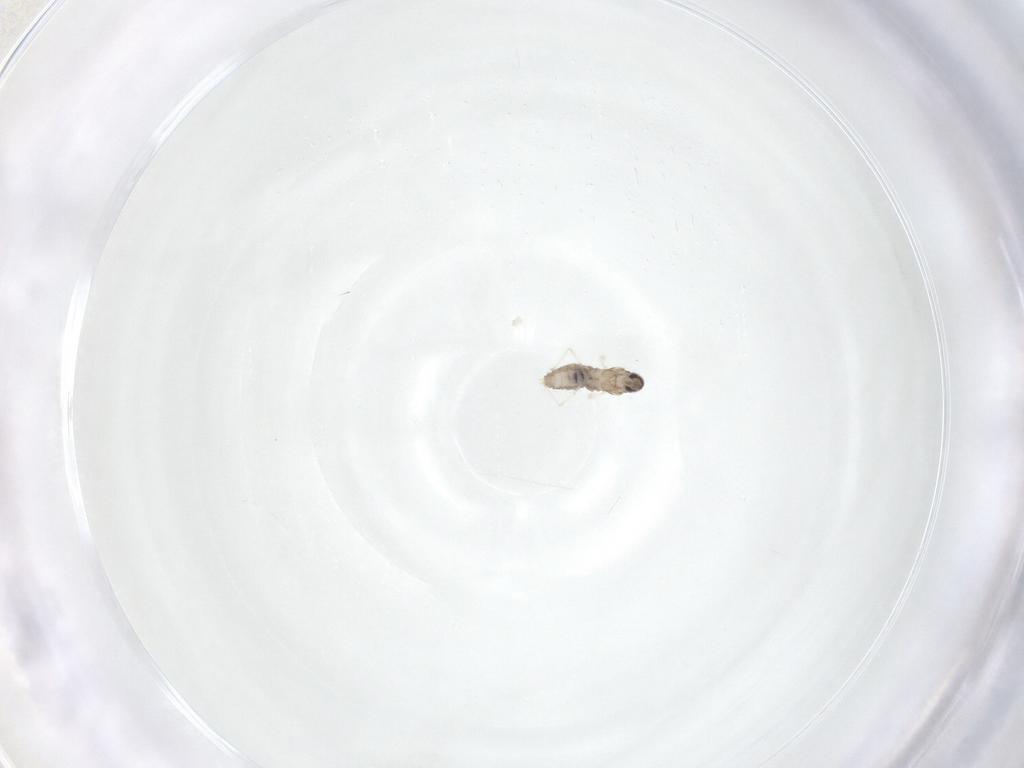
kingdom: Animalia
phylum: Arthropoda
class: Insecta
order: Diptera
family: Cecidomyiidae
